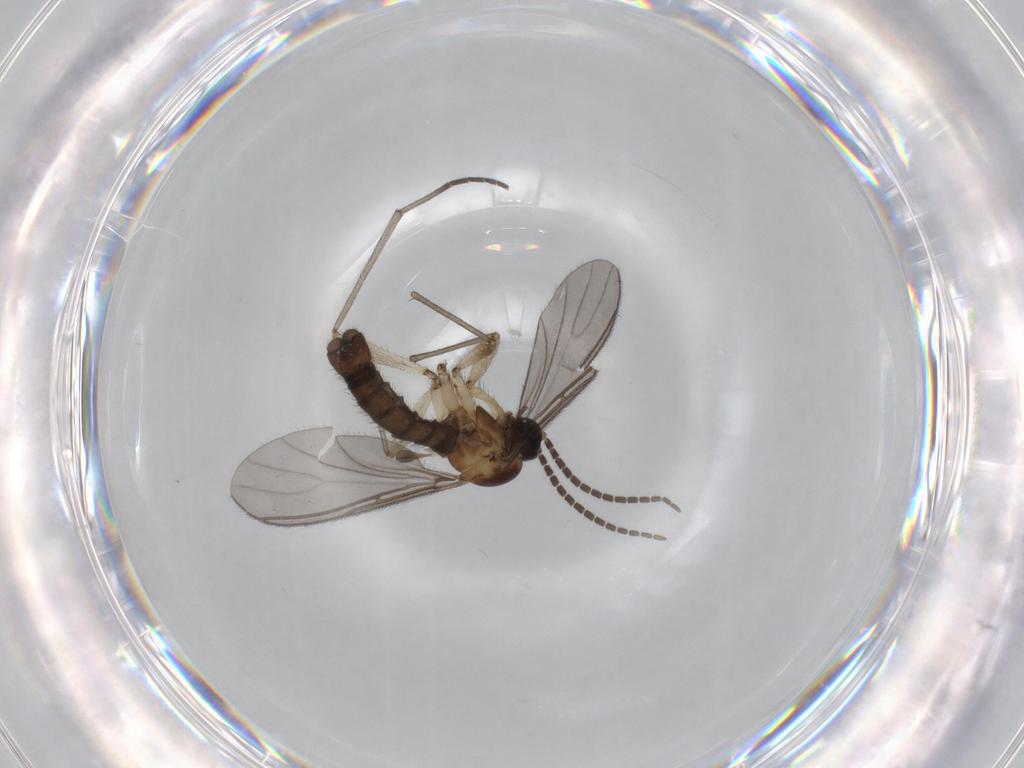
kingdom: Animalia
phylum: Arthropoda
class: Insecta
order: Diptera
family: Sciaridae
